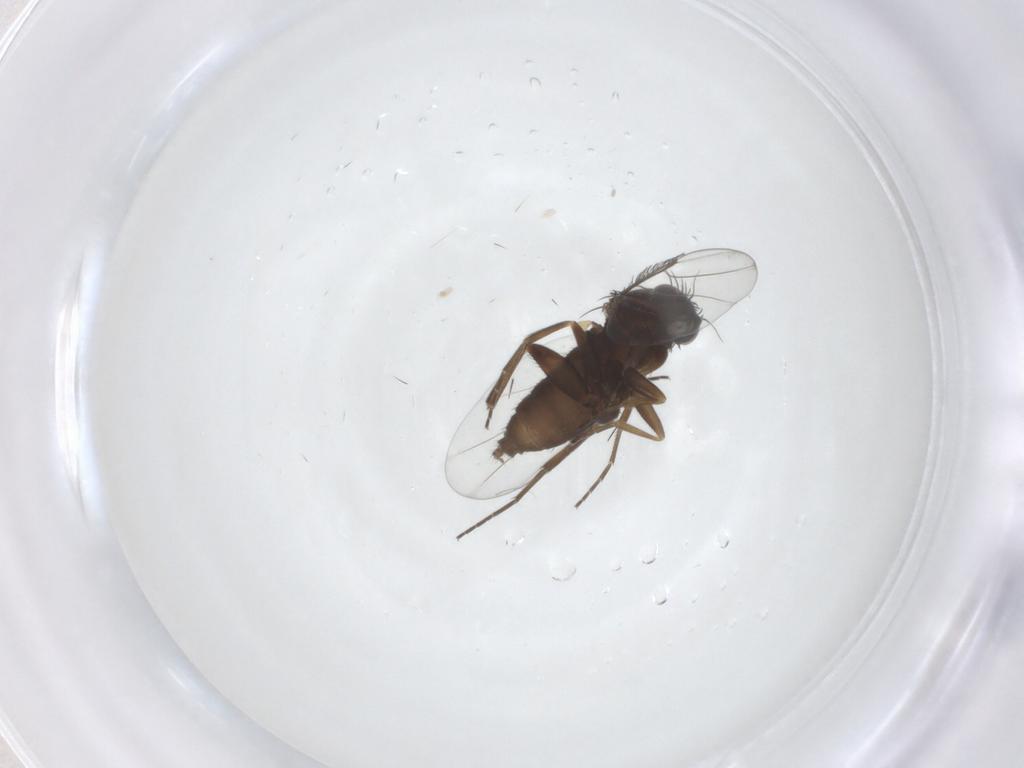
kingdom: Animalia
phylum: Arthropoda
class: Insecta
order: Diptera
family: Phoridae
